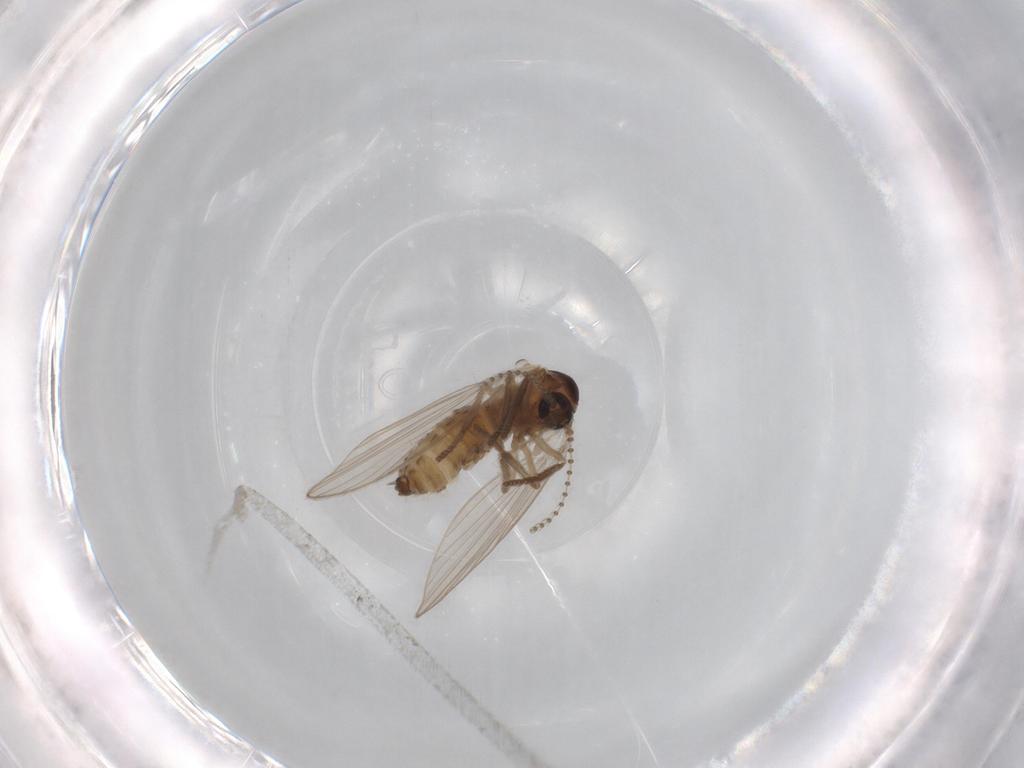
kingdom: Animalia
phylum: Arthropoda
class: Insecta
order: Diptera
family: Psychodidae
